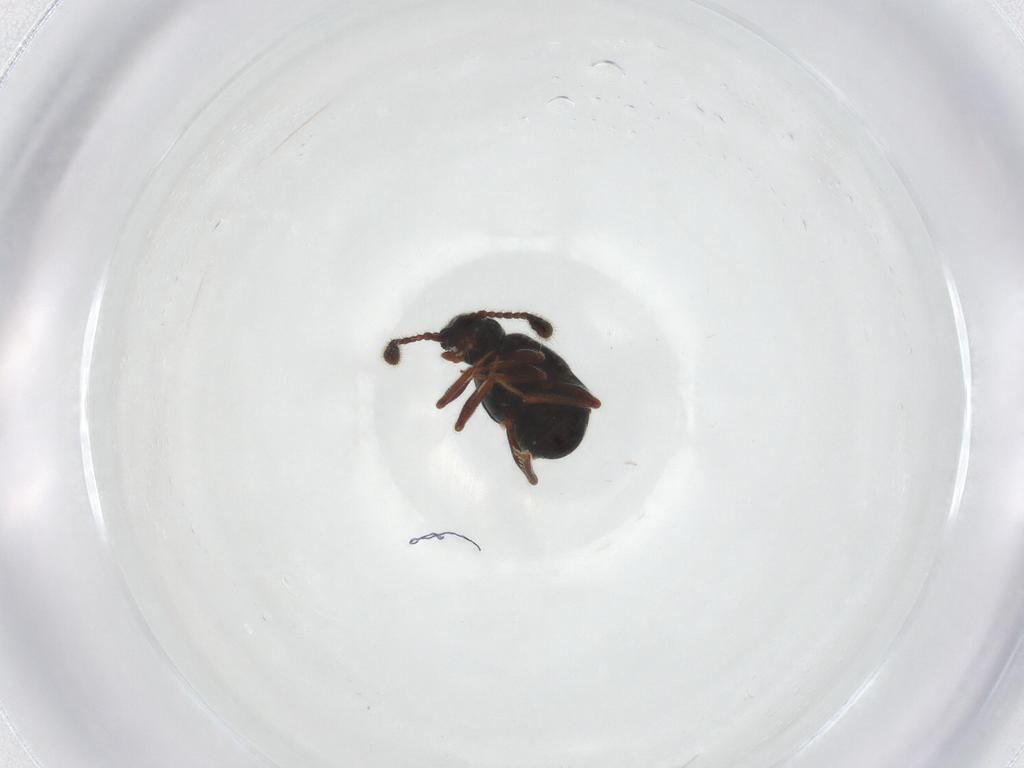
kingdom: Animalia
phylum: Arthropoda
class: Insecta
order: Coleoptera
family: Staphylinidae
